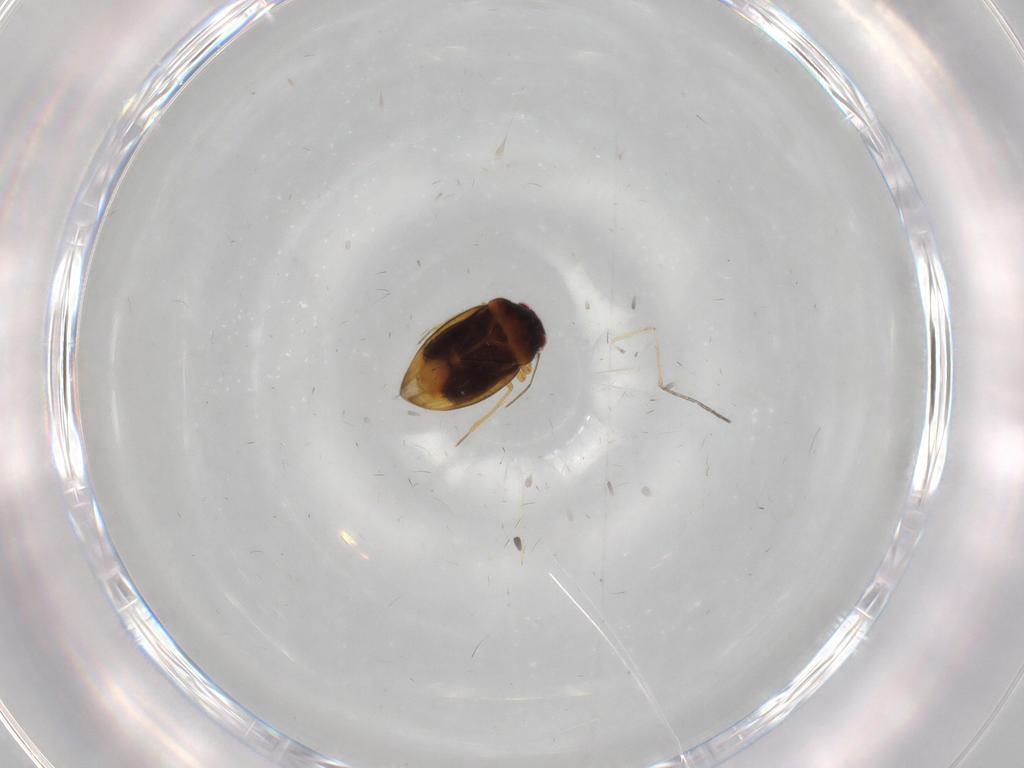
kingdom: Animalia
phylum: Arthropoda
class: Insecta
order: Hemiptera
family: Schizopteridae
